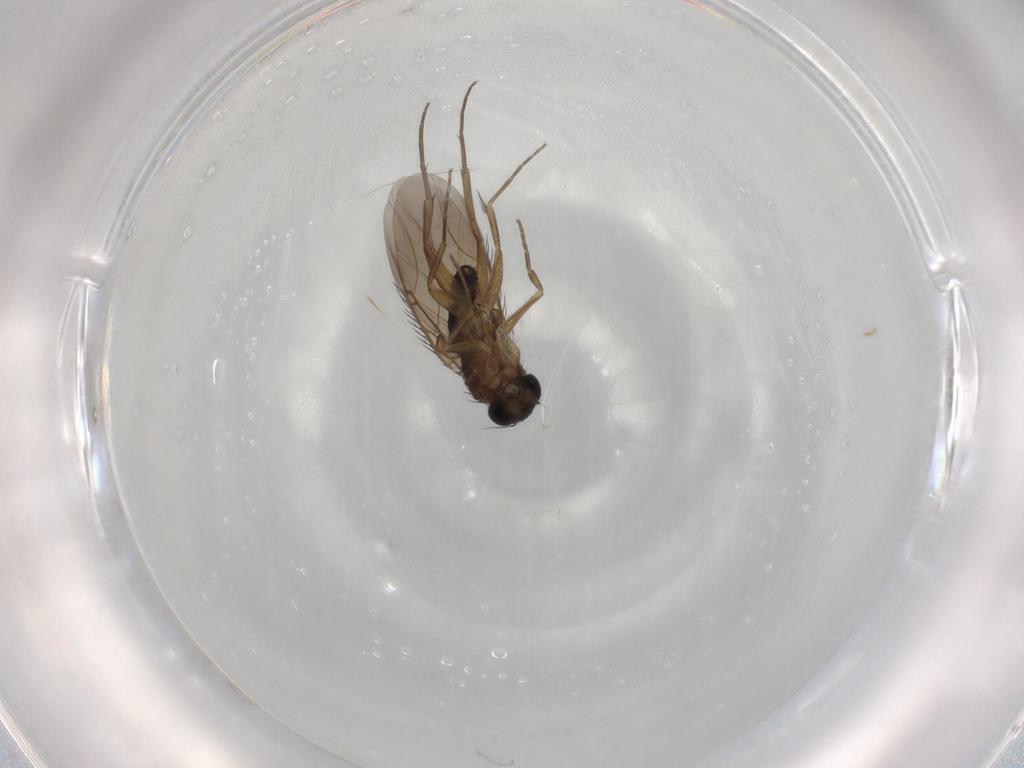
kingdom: Animalia
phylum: Arthropoda
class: Insecta
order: Diptera
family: Phoridae
